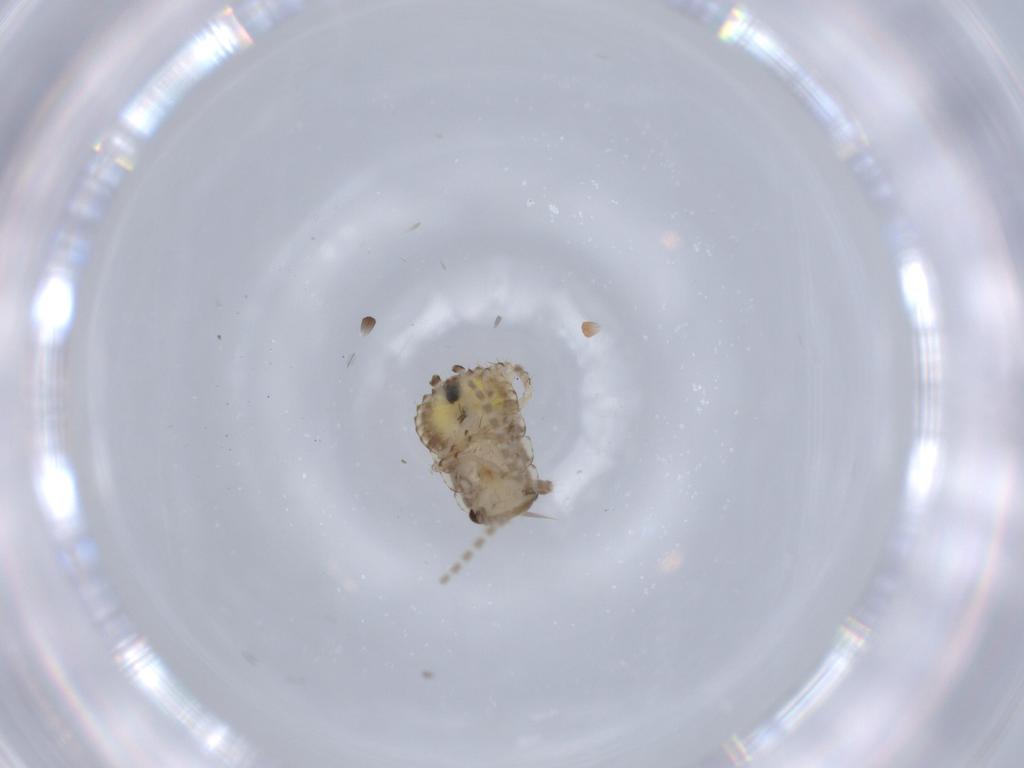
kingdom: Animalia
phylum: Arthropoda
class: Insecta
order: Blattodea
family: Ectobiidae
